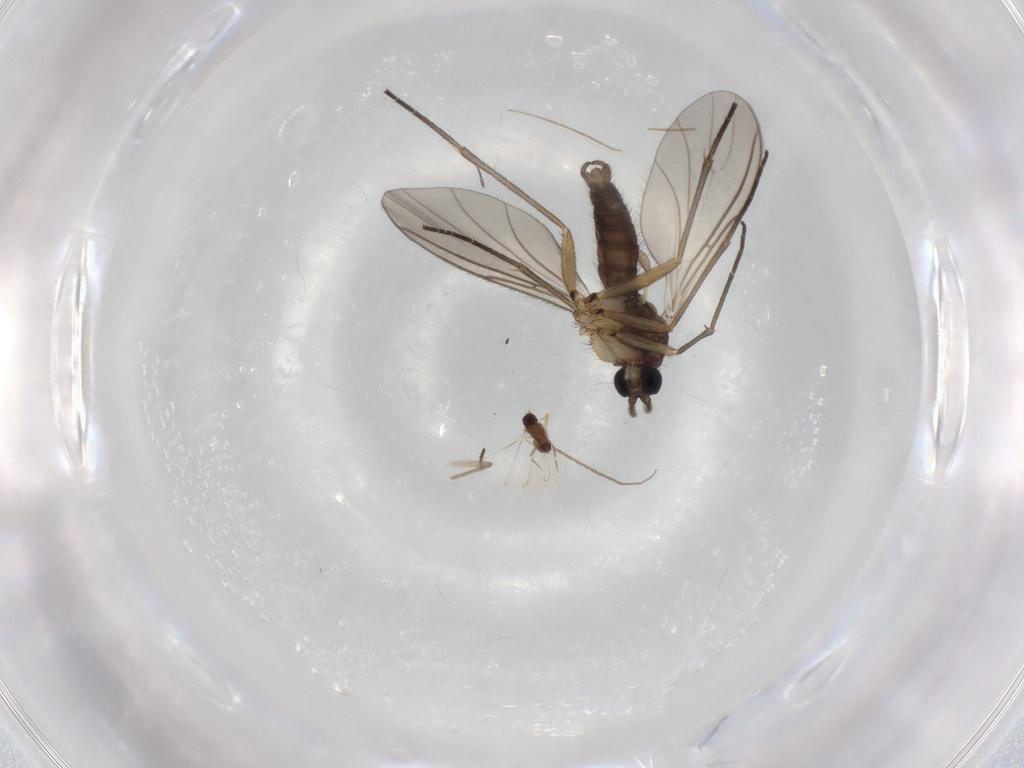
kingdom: Animalia
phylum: Arthropoda
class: Insecta
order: Diptera
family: Sciaridae
